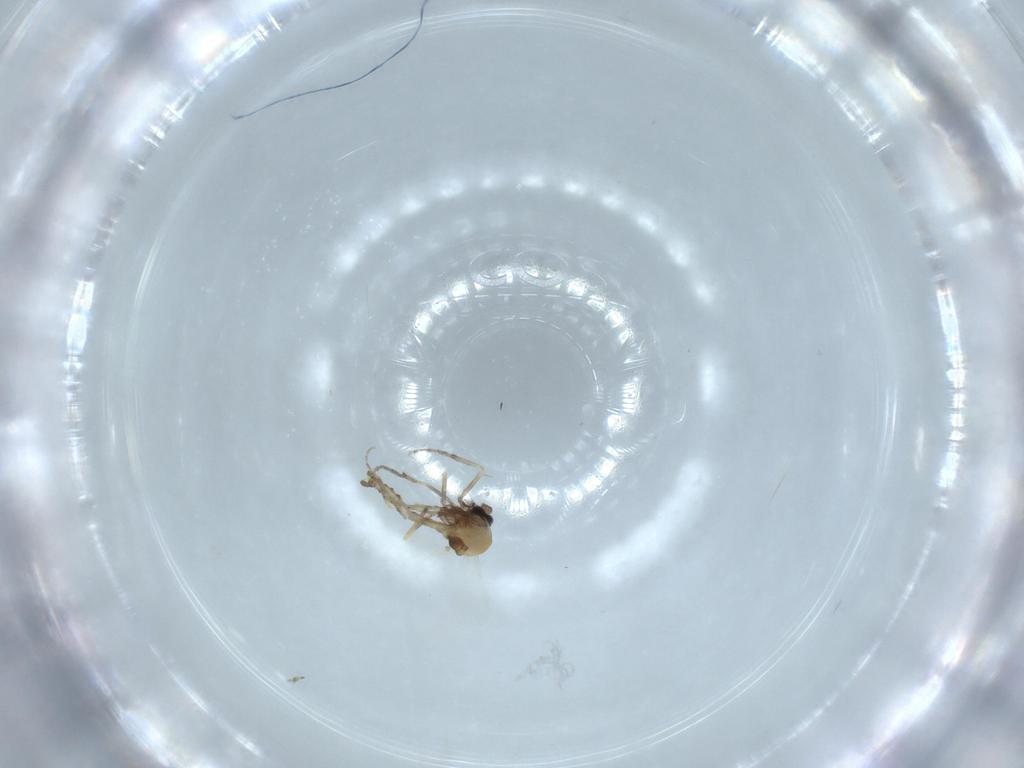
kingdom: Animalia
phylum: Arthropoda
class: Insecta
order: Diptera
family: Ceratopogonidae
